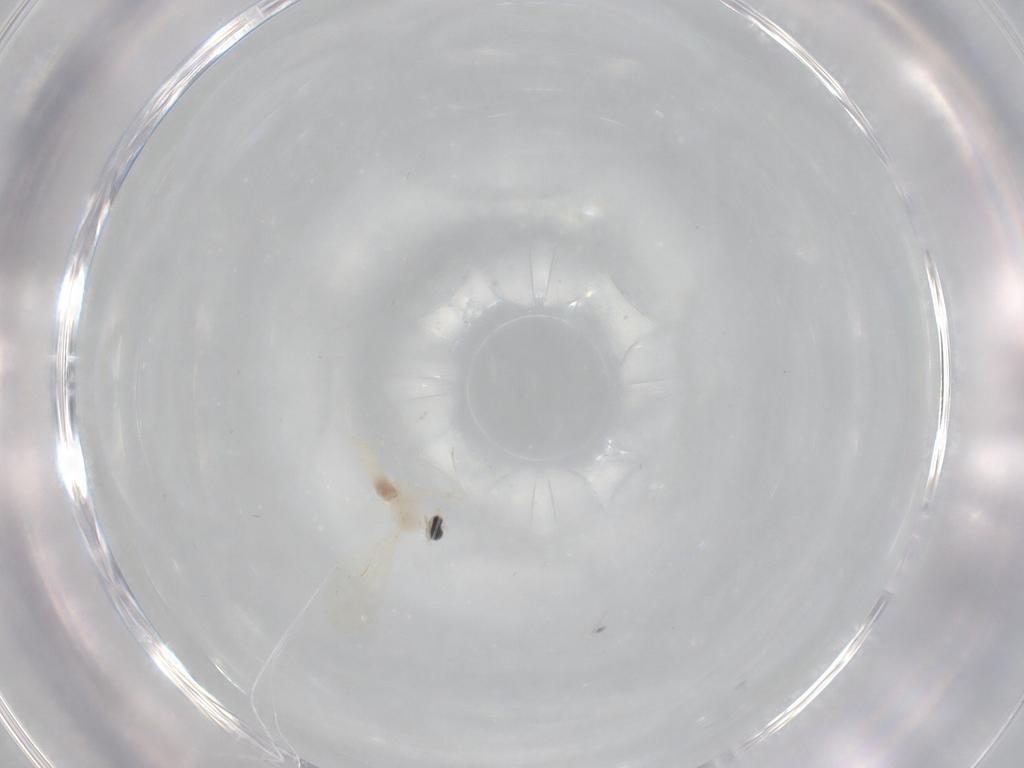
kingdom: Animalia
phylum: Arthropoda
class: Insecta
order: Diptera
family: Cecidomyiidae
